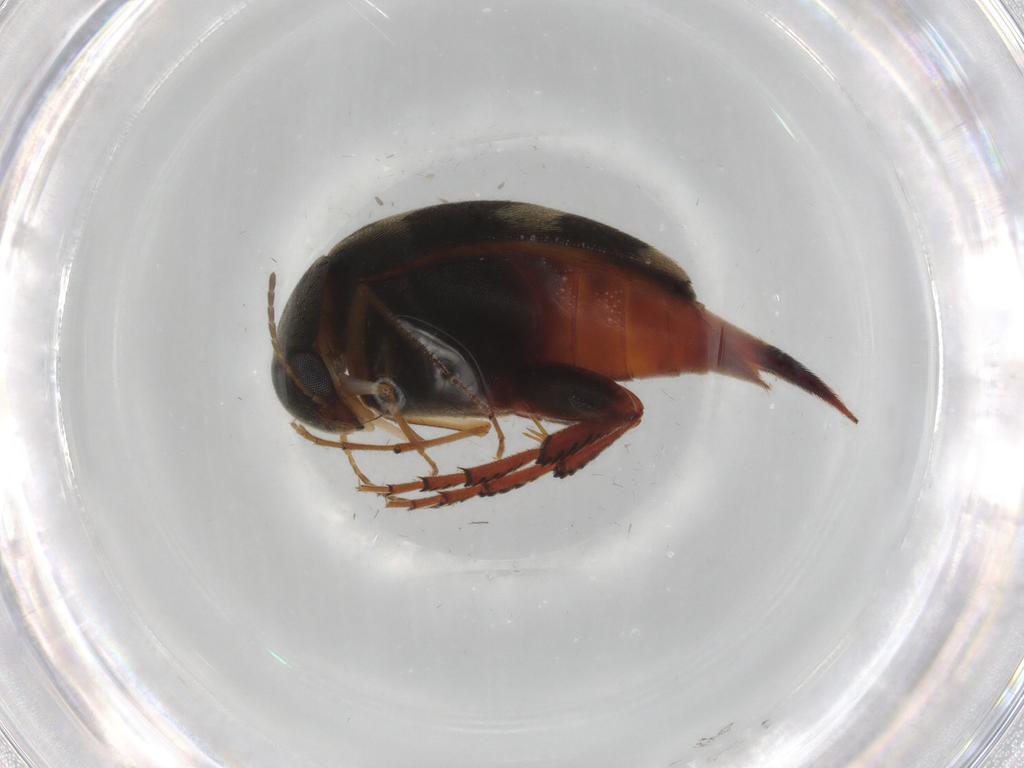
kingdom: Animalia
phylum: Arthropoda
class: Insecta
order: Coleoptera
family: Mordellidae
